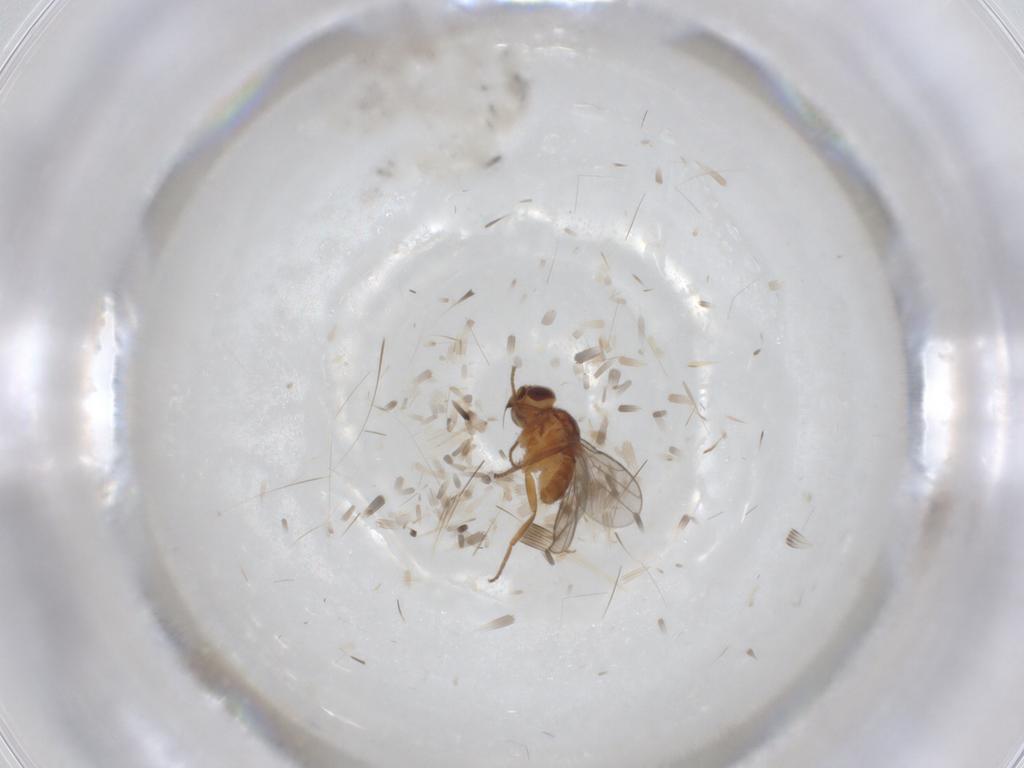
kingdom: Animalia
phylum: Arthropoda
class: Insecta
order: Diptera
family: Chloropidae
